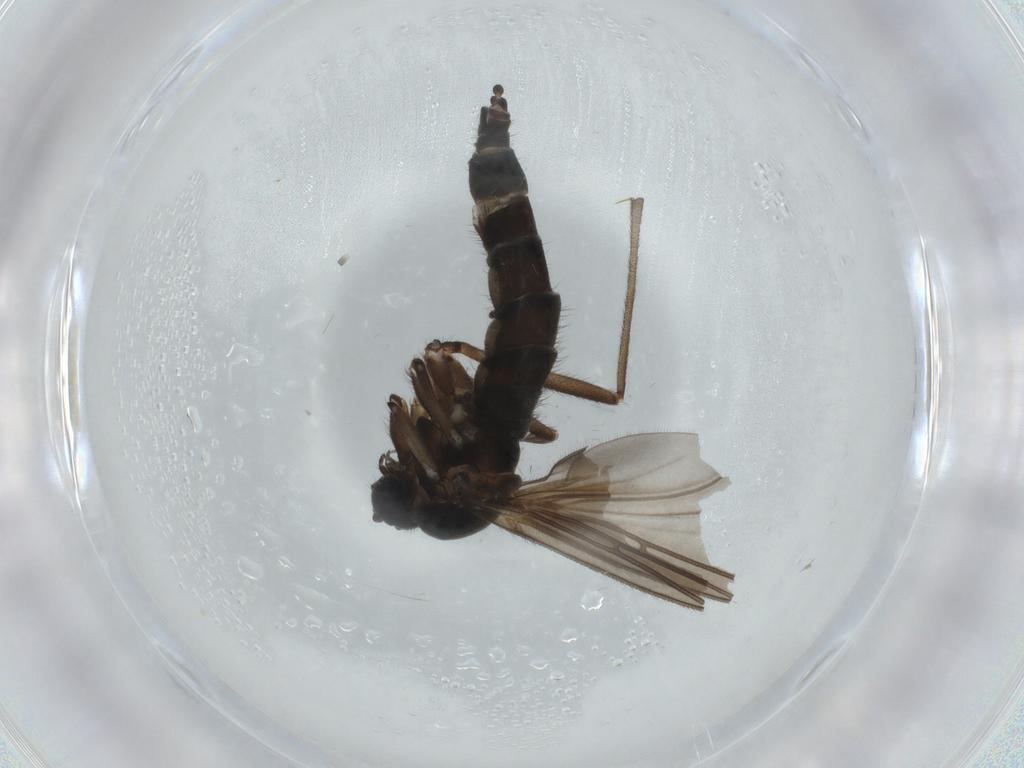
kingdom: Animalia
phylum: Arthropoda
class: Insecta
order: Diptera
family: Sciaridae
